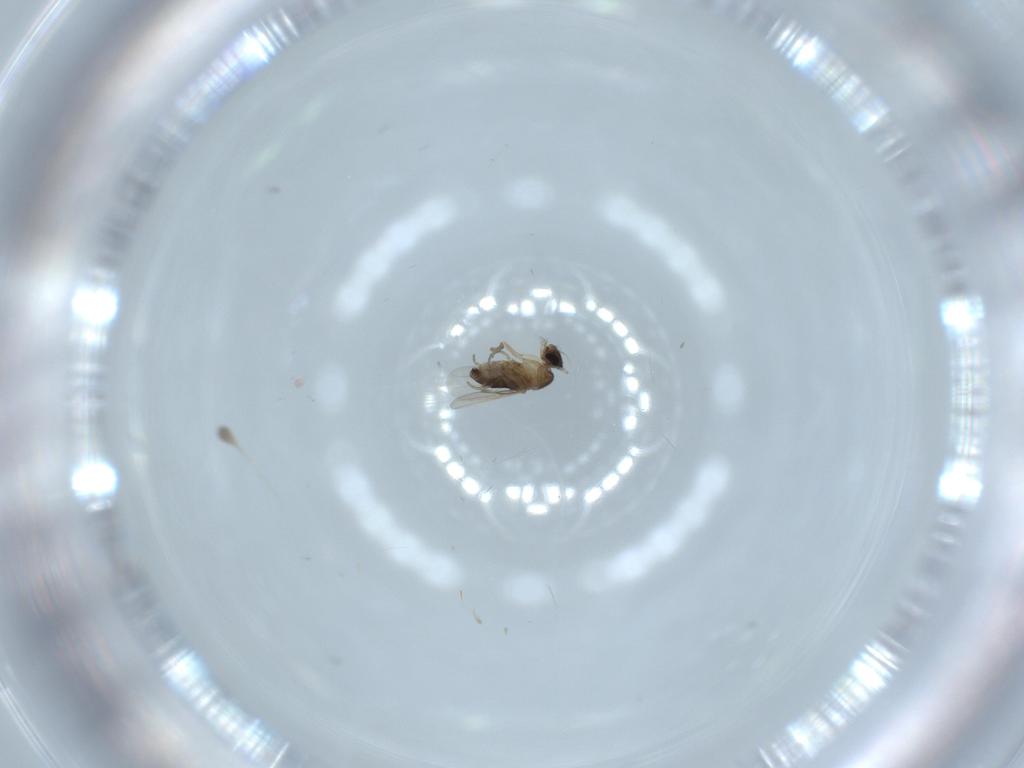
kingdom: Animalia
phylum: Arthropoda
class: Insecta
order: Diptera
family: Phoridae
